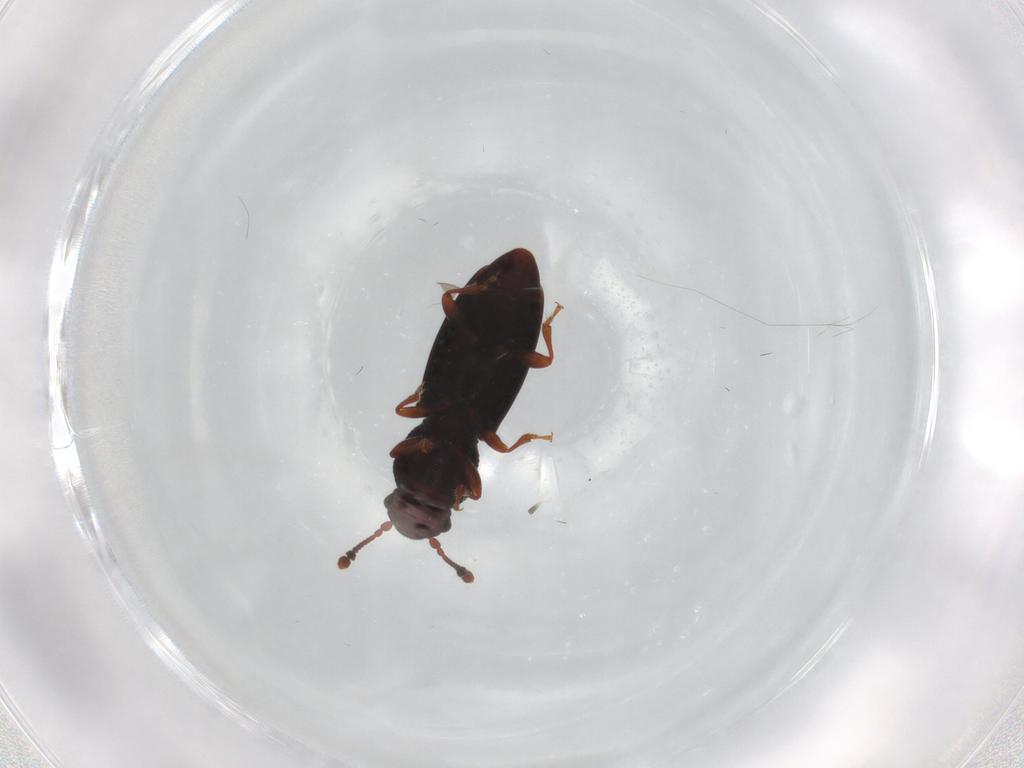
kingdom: Animalia
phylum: Arthropoda
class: Insecta
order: Coleoptera
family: Monotomidae
